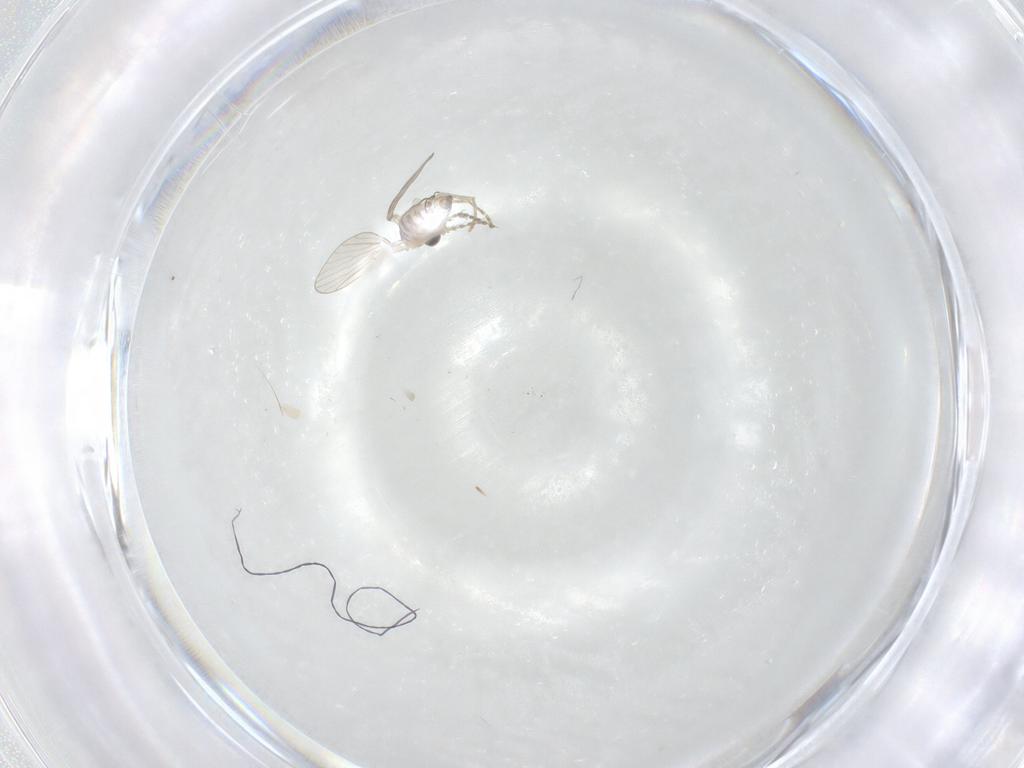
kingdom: Animalia
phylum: Arthropoda
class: Insecta
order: Diptera
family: Psychodidae
